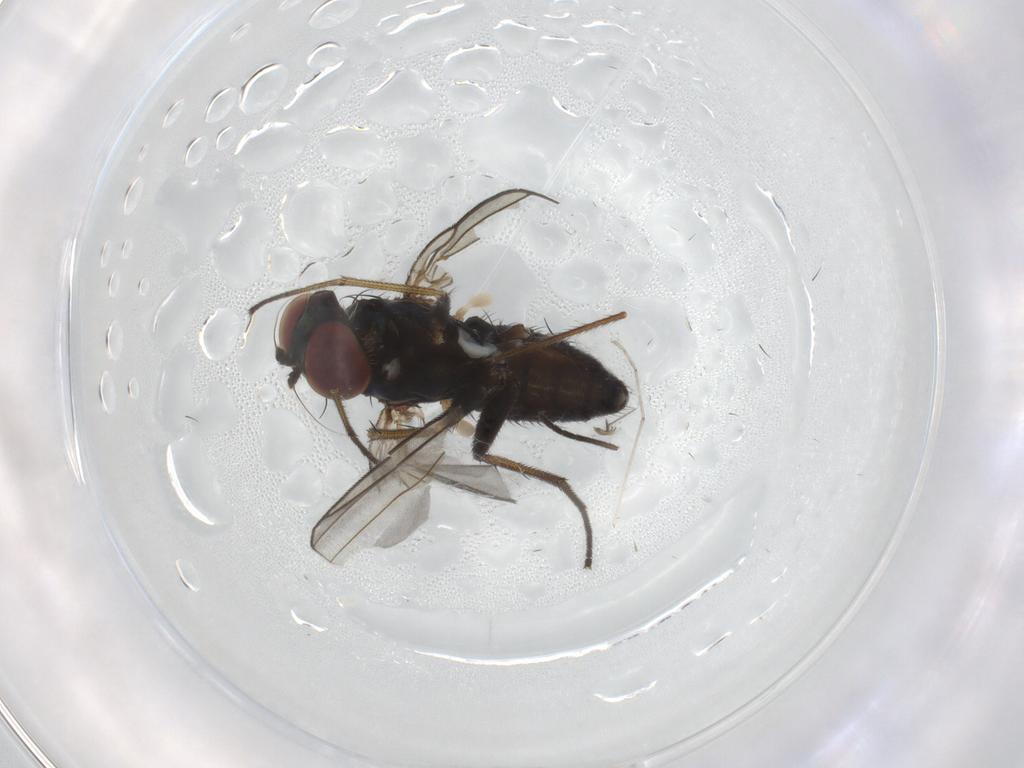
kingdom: Animalia
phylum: Arthropoda
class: Insecta
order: Diptera
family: Dolichopodidae
